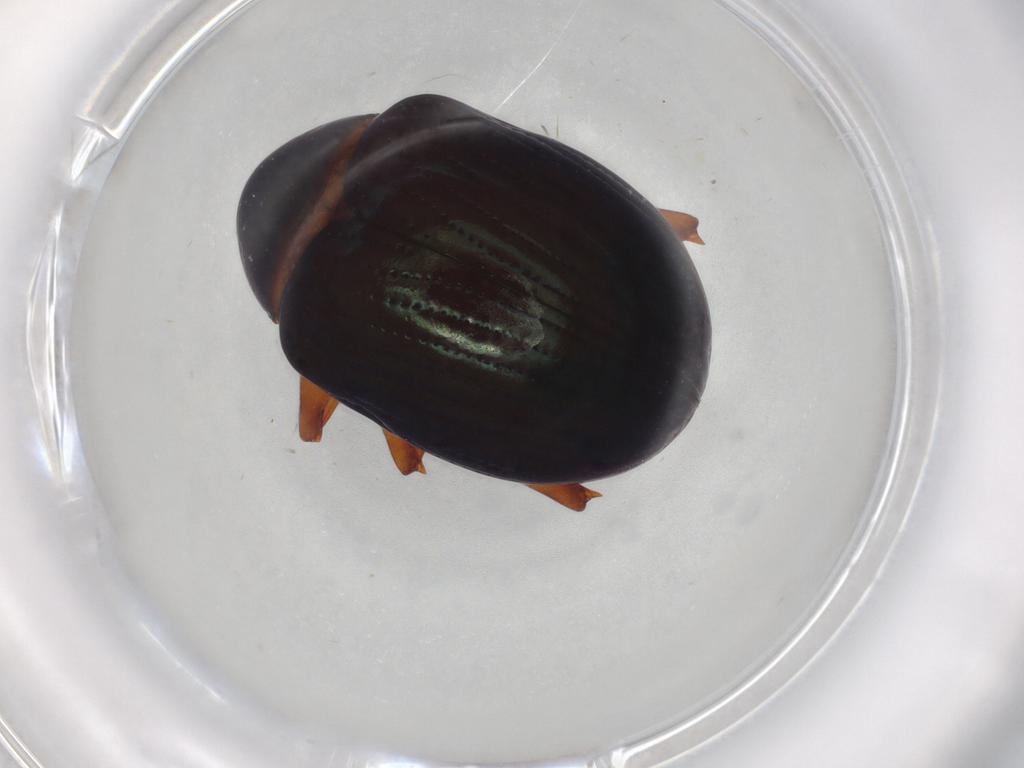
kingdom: Animalia
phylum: Arthropoda
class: Insecta
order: Coleoptera
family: Chrysomelidae
